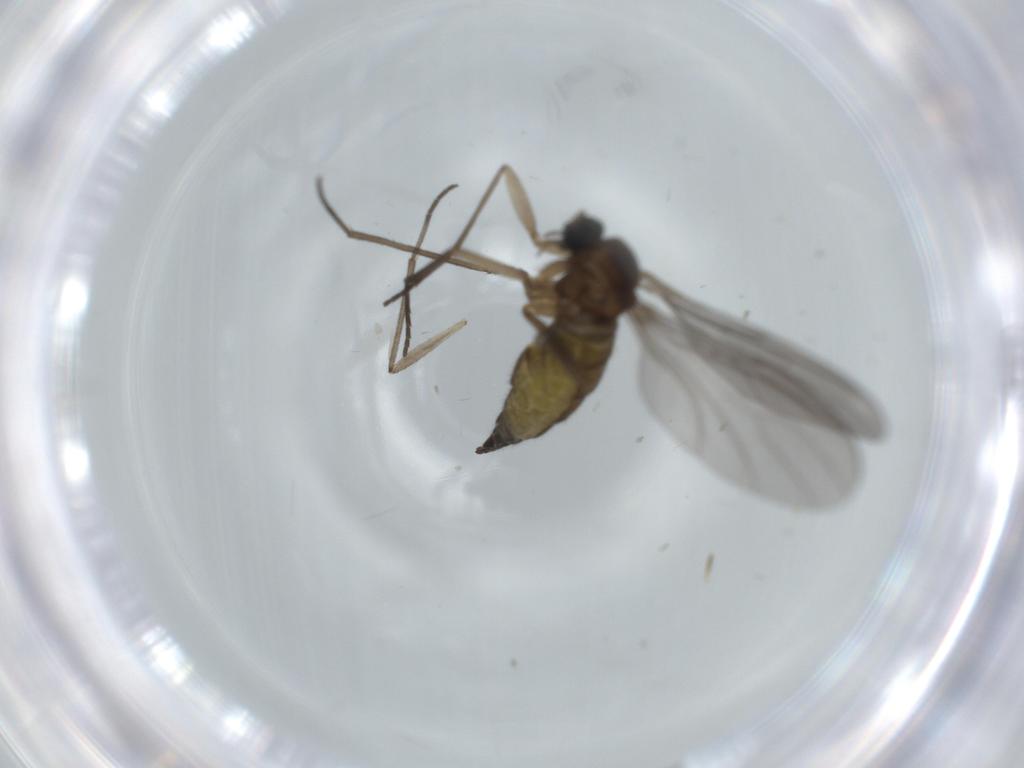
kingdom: Animalia
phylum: Arthropoda
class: Insecta
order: Diptera
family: Sciaridae
